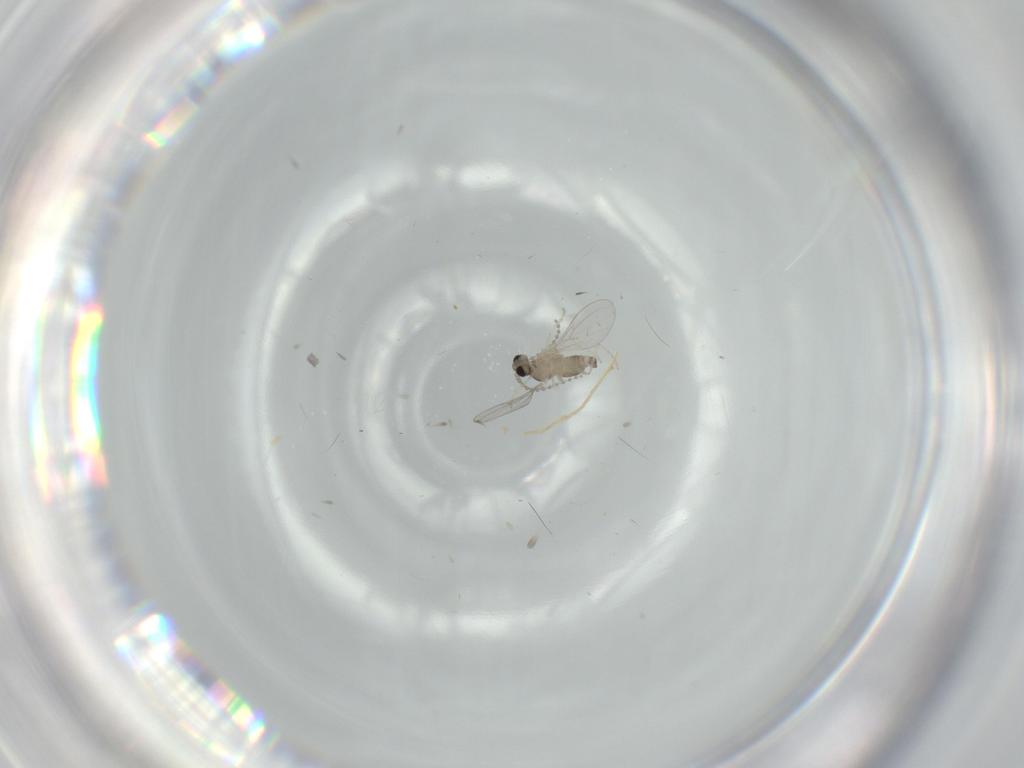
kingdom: Animalia
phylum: Arthropoda
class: Insecta
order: Diptera
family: Cecidomyiidae
